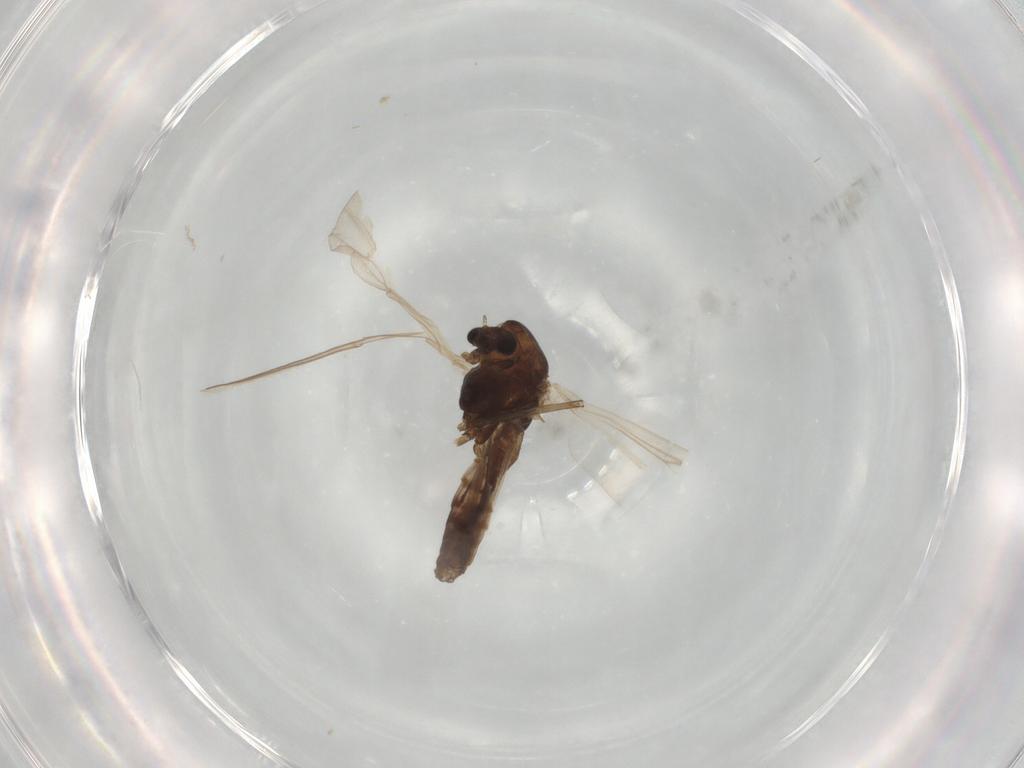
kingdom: Animalia
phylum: Arthropoda
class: Insecta
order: Diptera
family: Chironomidae
